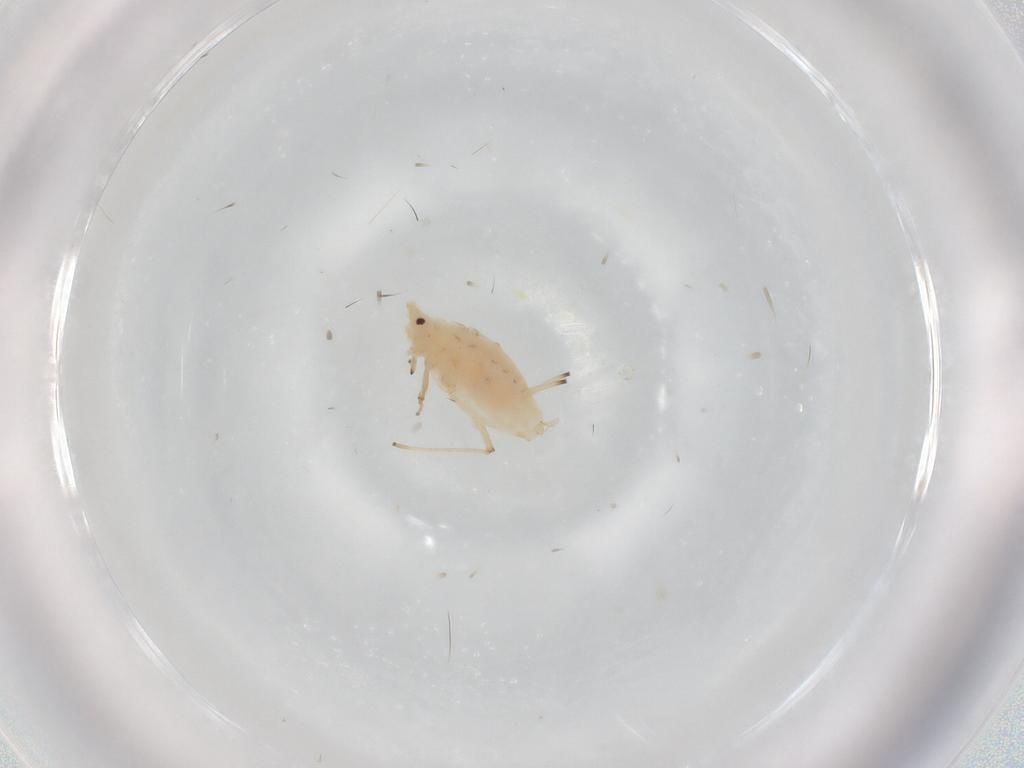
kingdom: Animalia
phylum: Arthropoda
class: Insecta
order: Hemiptera
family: Aphididae
